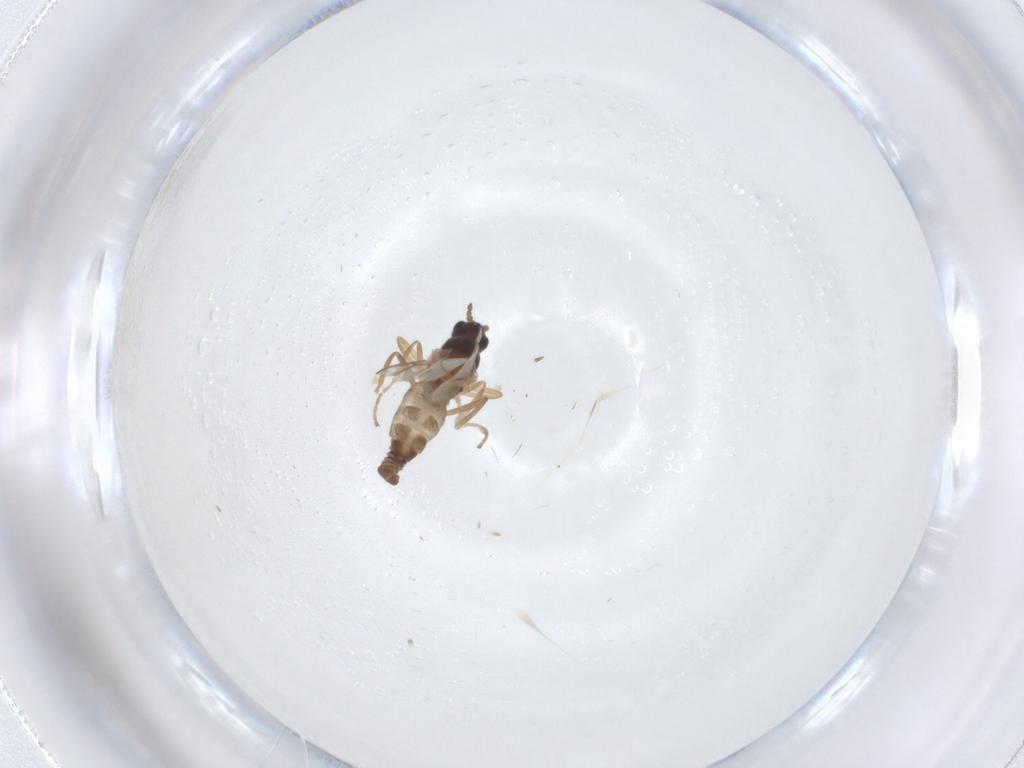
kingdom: Animalia
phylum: Arthropoda
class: Insecta
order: Diptera
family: Cecidomyiidae
